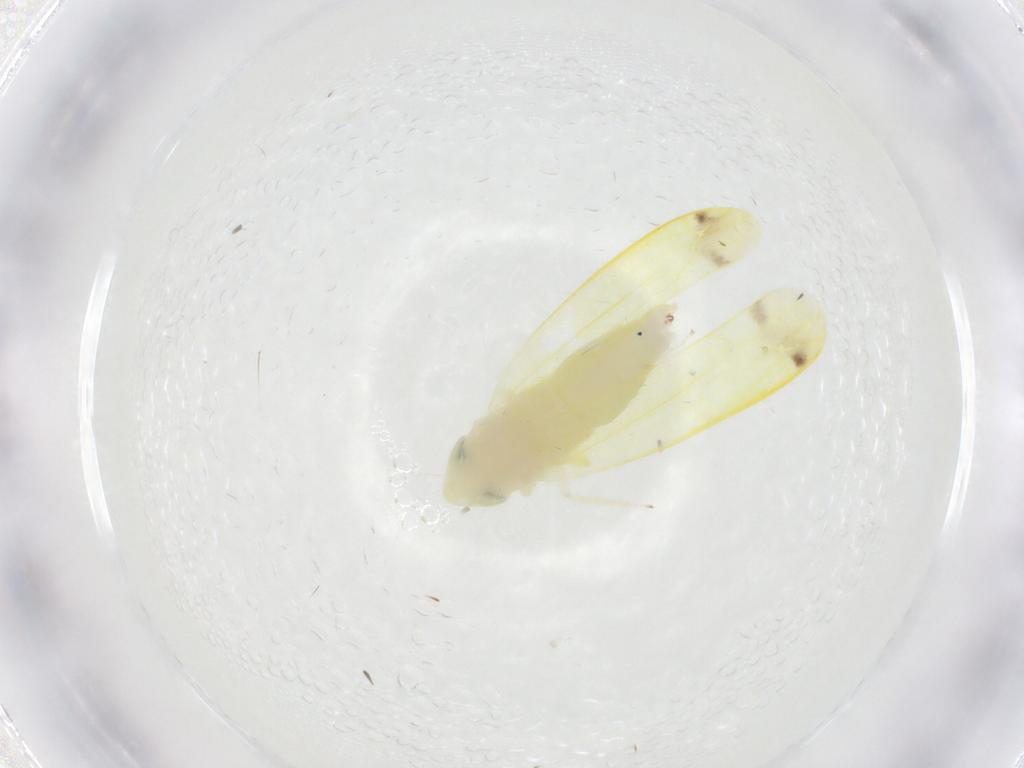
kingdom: Animalia
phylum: Arthropoda
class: Insecta
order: Hemiptera
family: Cicadellidae
